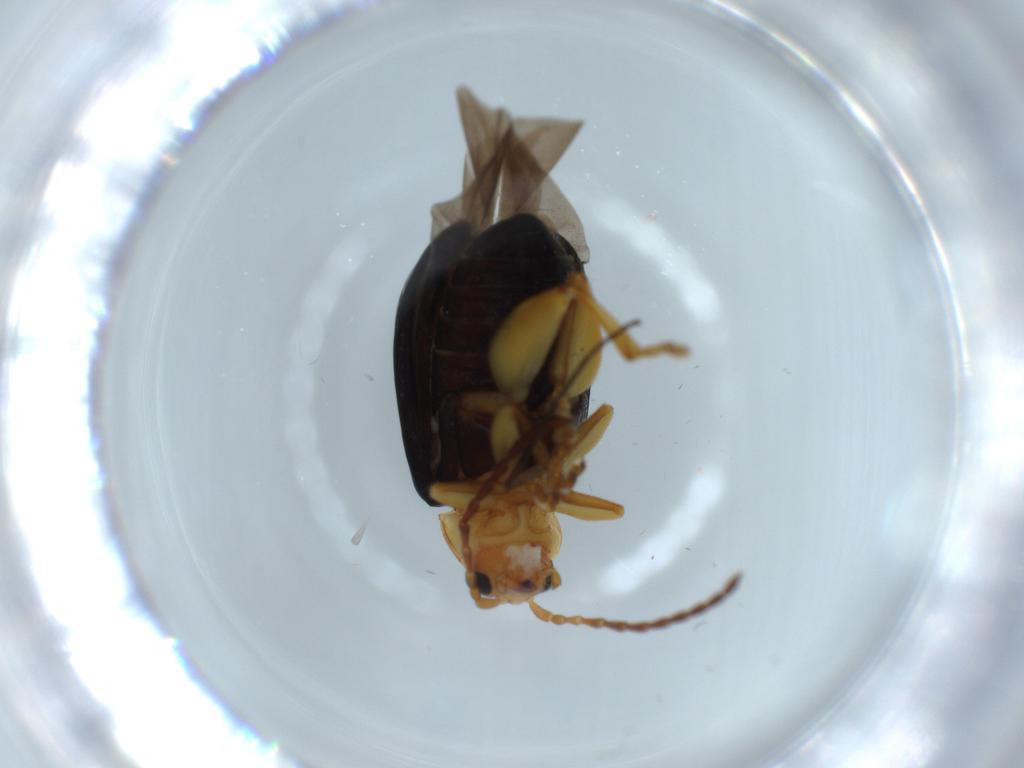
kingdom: Animalia
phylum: Arthropoda
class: Insecta
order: Coleoptera
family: Chrysomelidae
